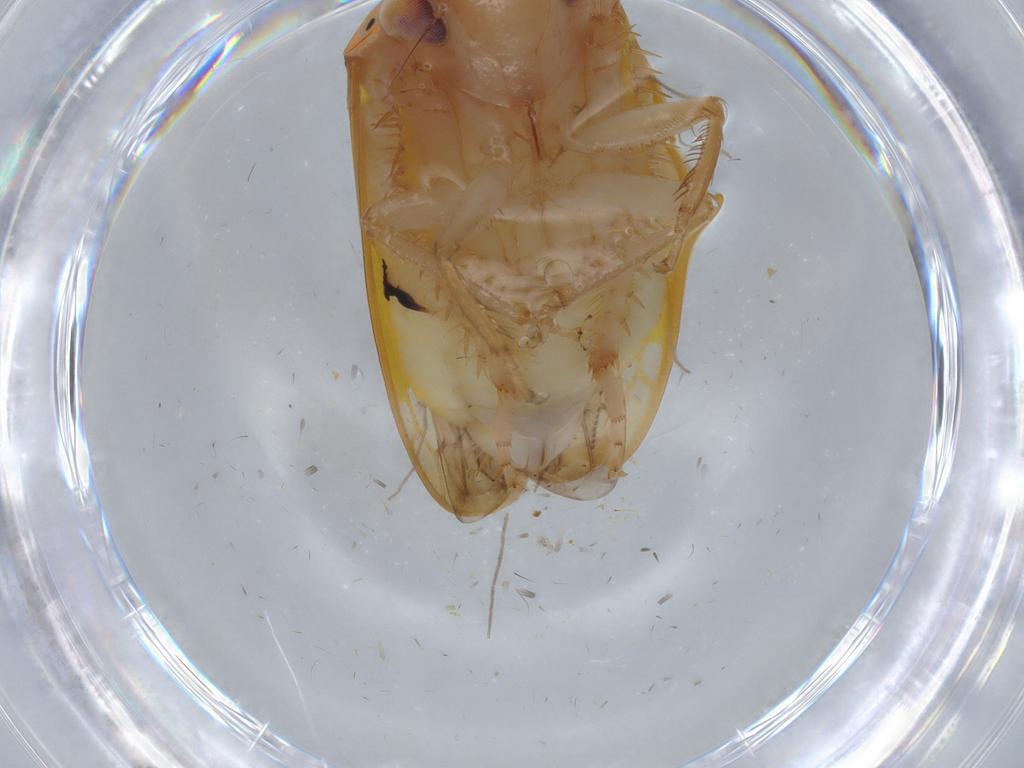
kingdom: Animalia
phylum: Arthropoda
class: Insecta
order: Hemiptera
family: Cicadellidae
